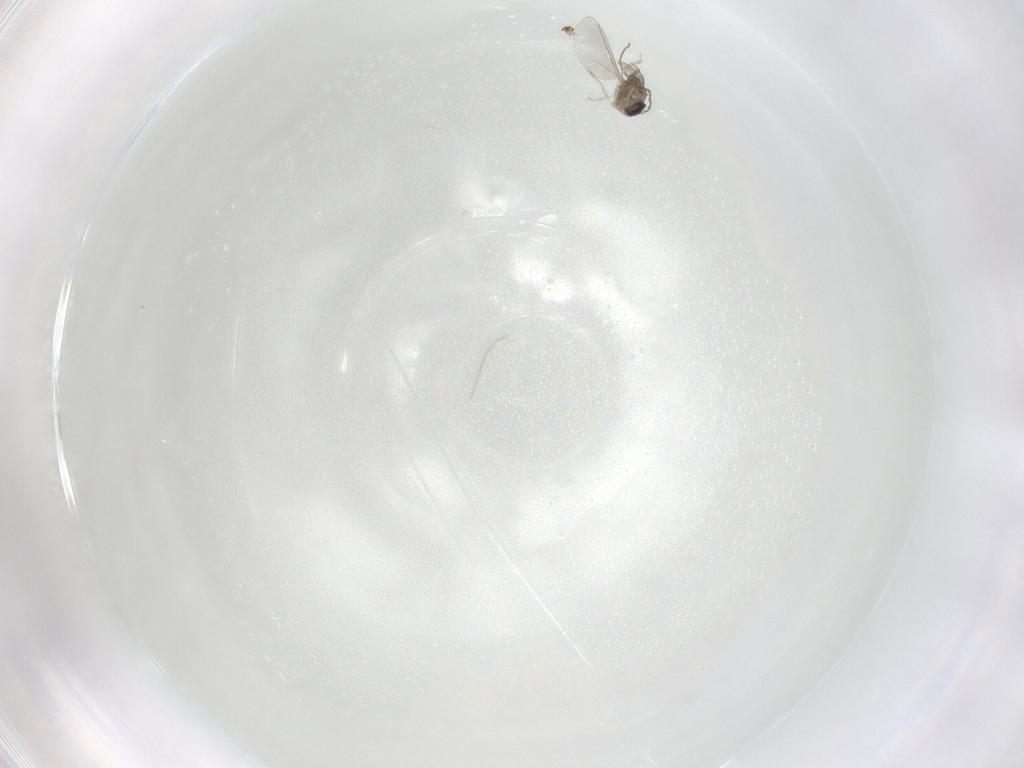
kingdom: Animalia
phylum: Arthropoda
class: Insecta
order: Diptera
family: Cecidomyiidae
